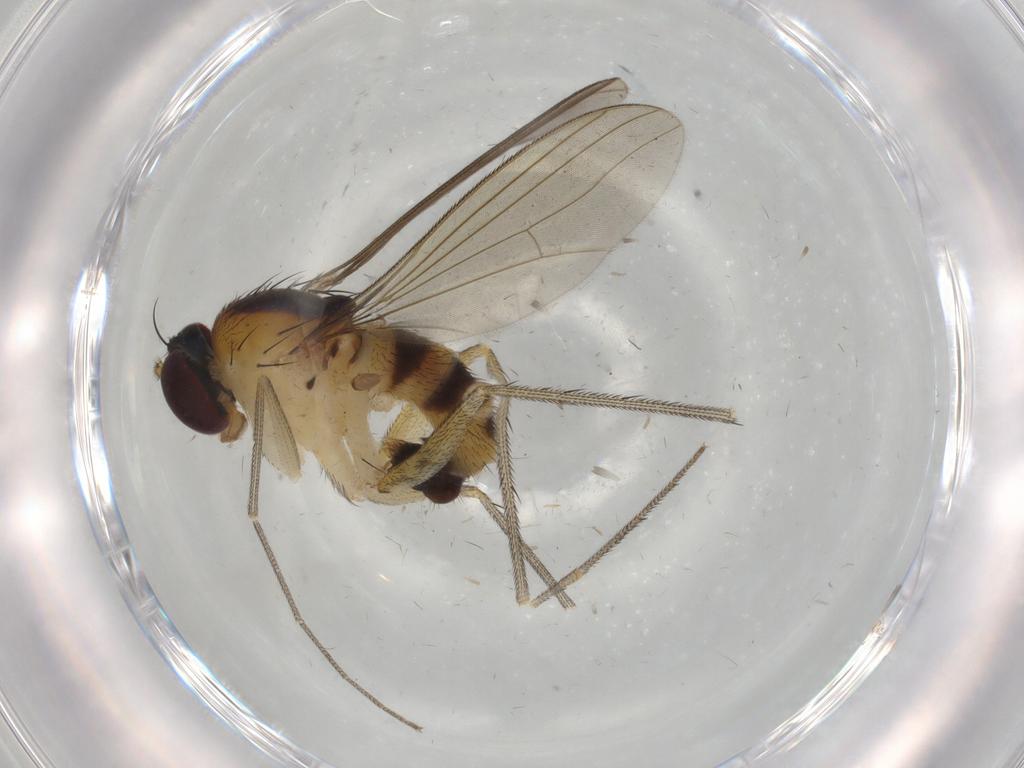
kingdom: Animalia
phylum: Arthropoda
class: Insecta
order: Diptera
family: Chironomidae
